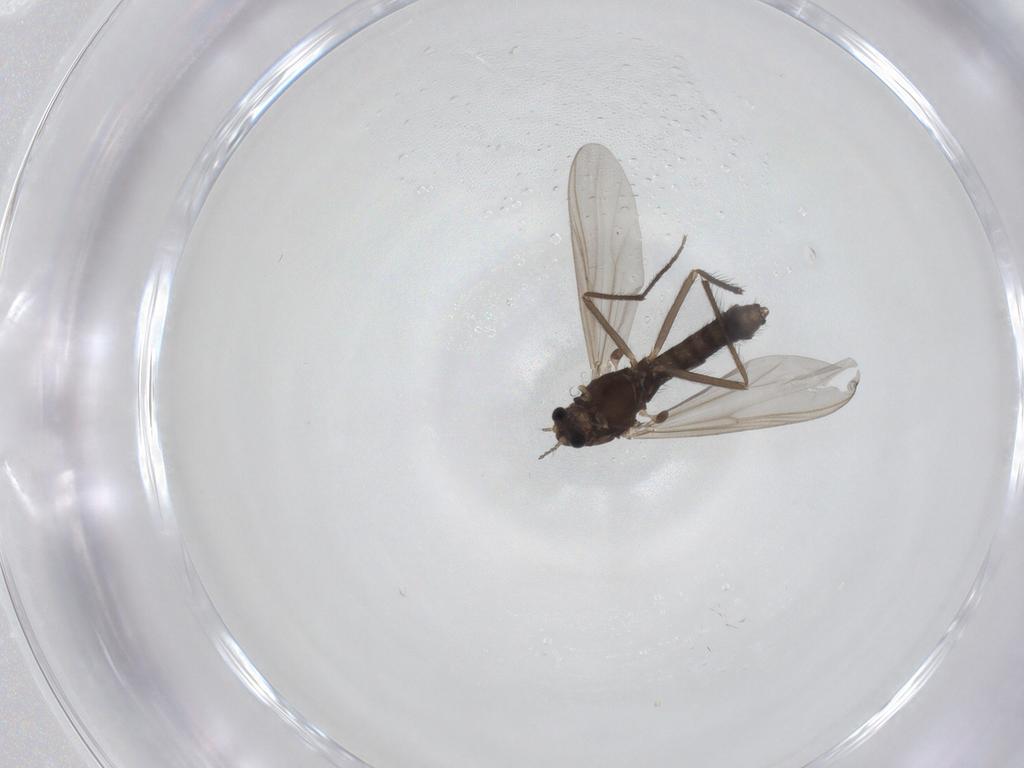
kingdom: Animalia
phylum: Arthropoda
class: Insecta
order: Diptera
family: Chironomidae
